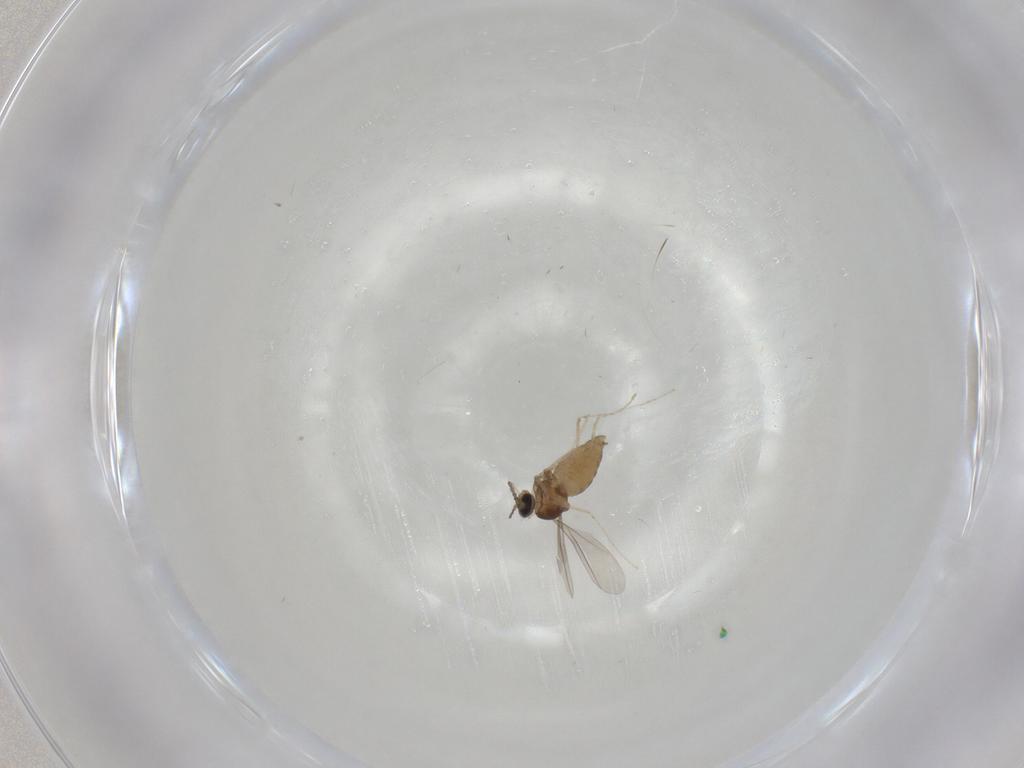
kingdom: Animalia
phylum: Arthropoda
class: Insecta
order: Diptera
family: Cecidomyiidae
